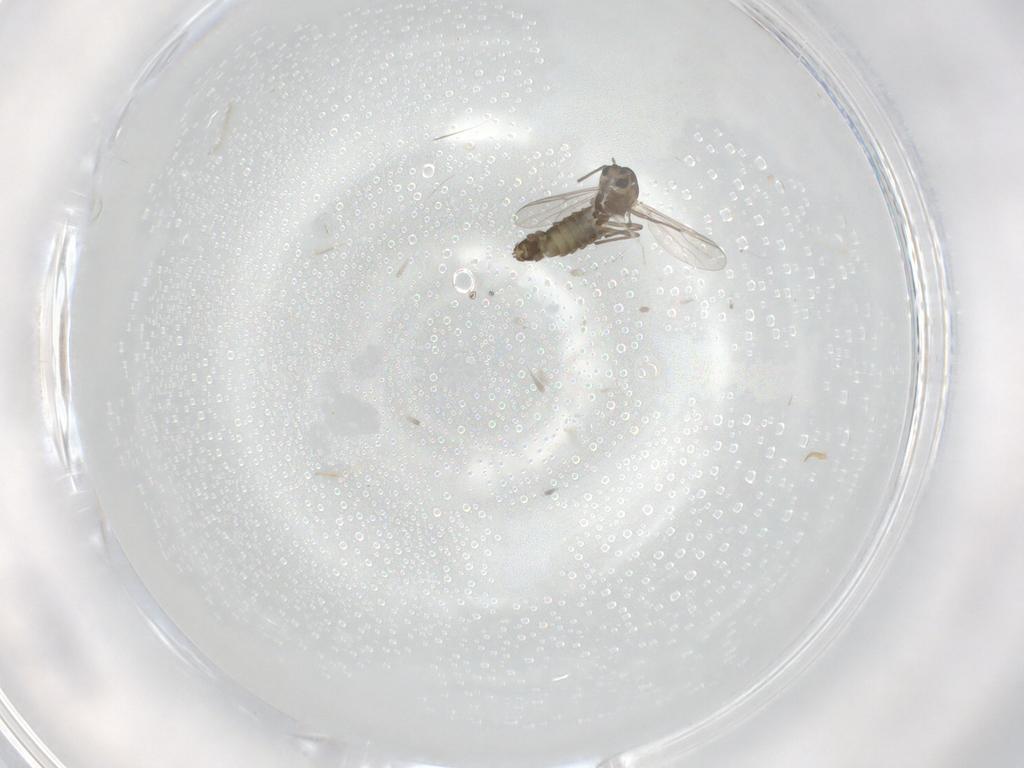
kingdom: Animalia
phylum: Arthropoda
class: Insecta
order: Diptera
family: Chironomidae
